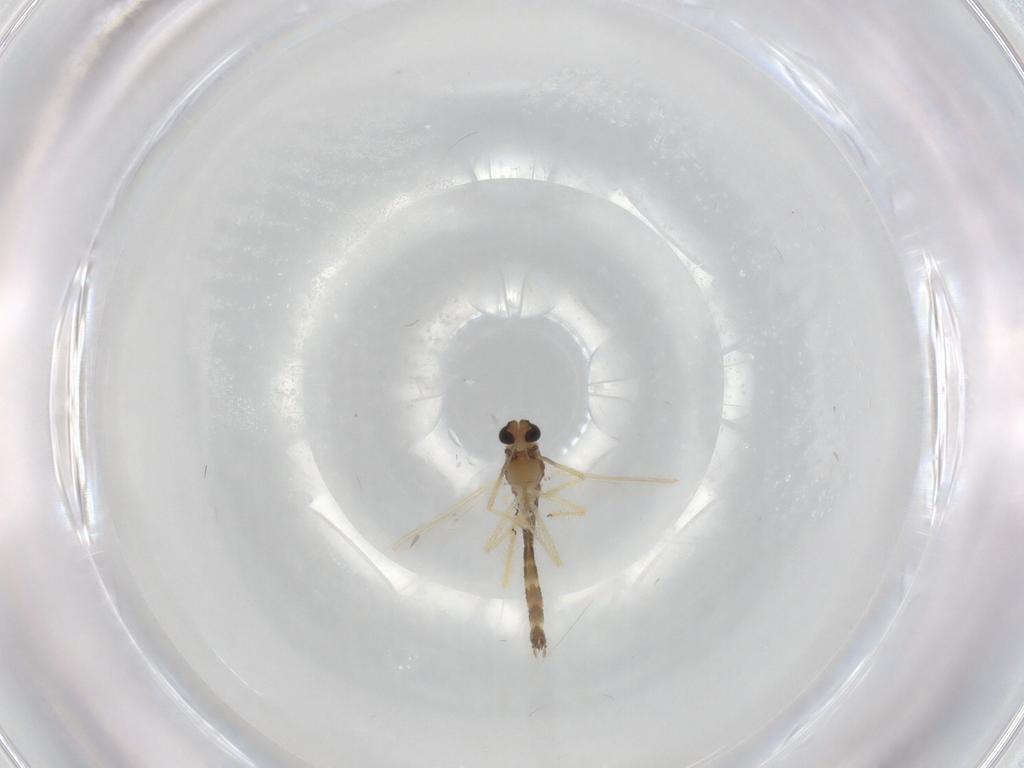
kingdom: Animalia
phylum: Arthropoda
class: Insecta
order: Diptera
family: Chironomidae
